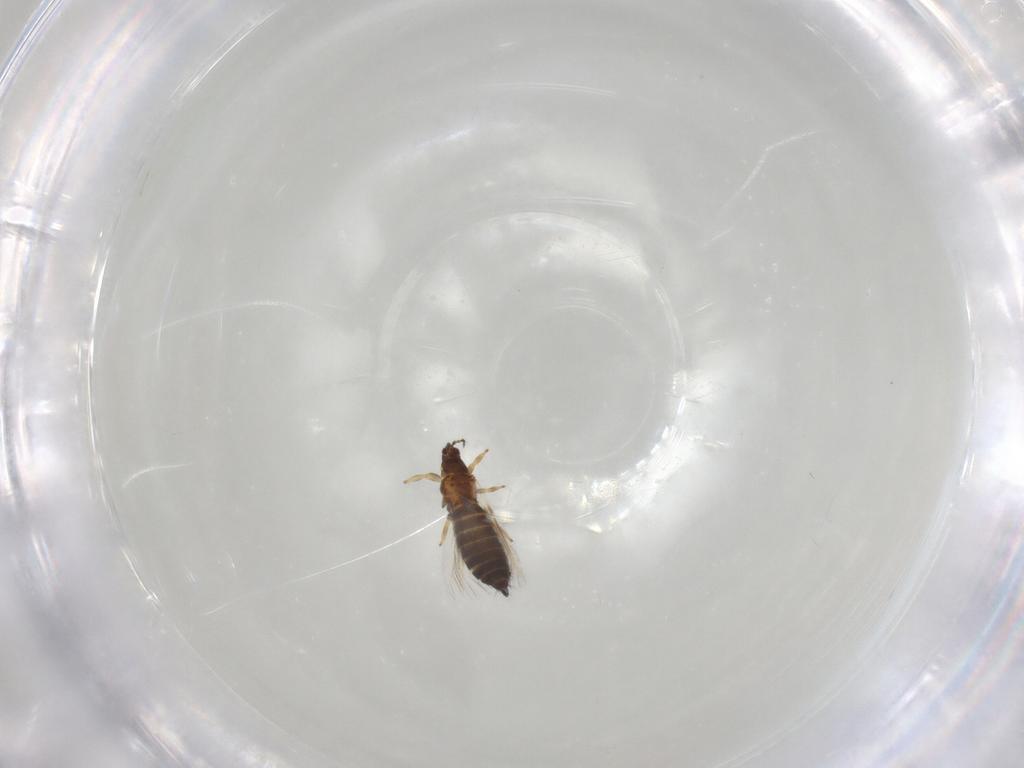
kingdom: Animalia
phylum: Arthropoda
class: Insecta
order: Thysanoptera
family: Thripidae
